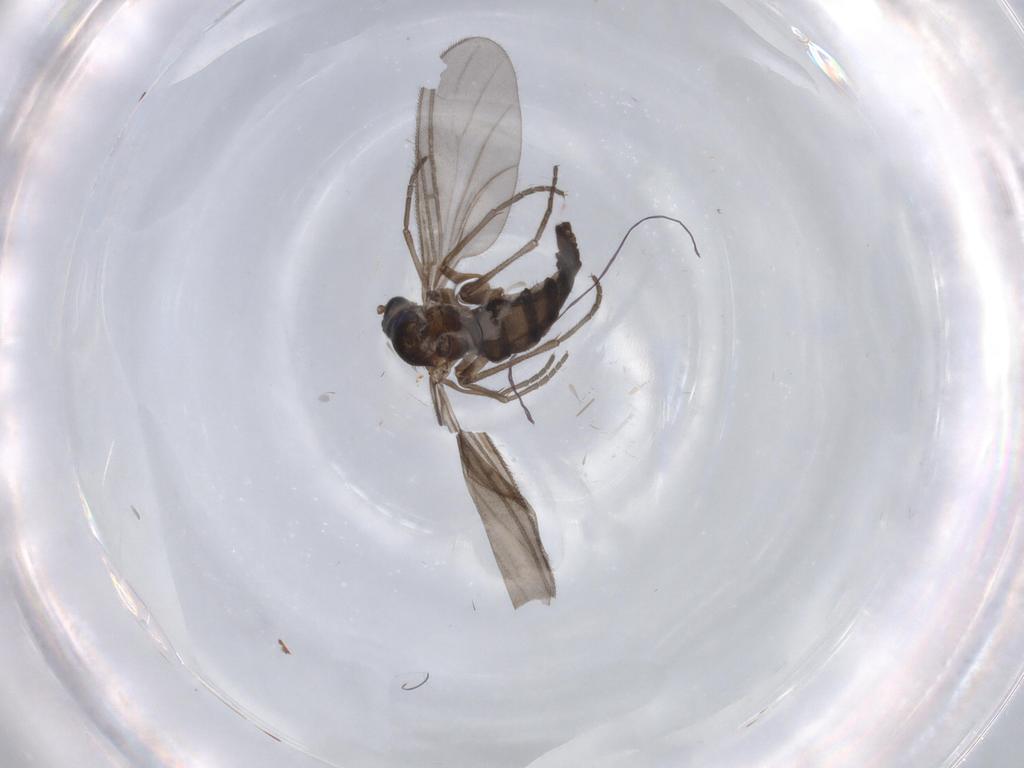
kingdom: Animalia
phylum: Arthropoda
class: Insecta
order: Diptera
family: Sciaridae
